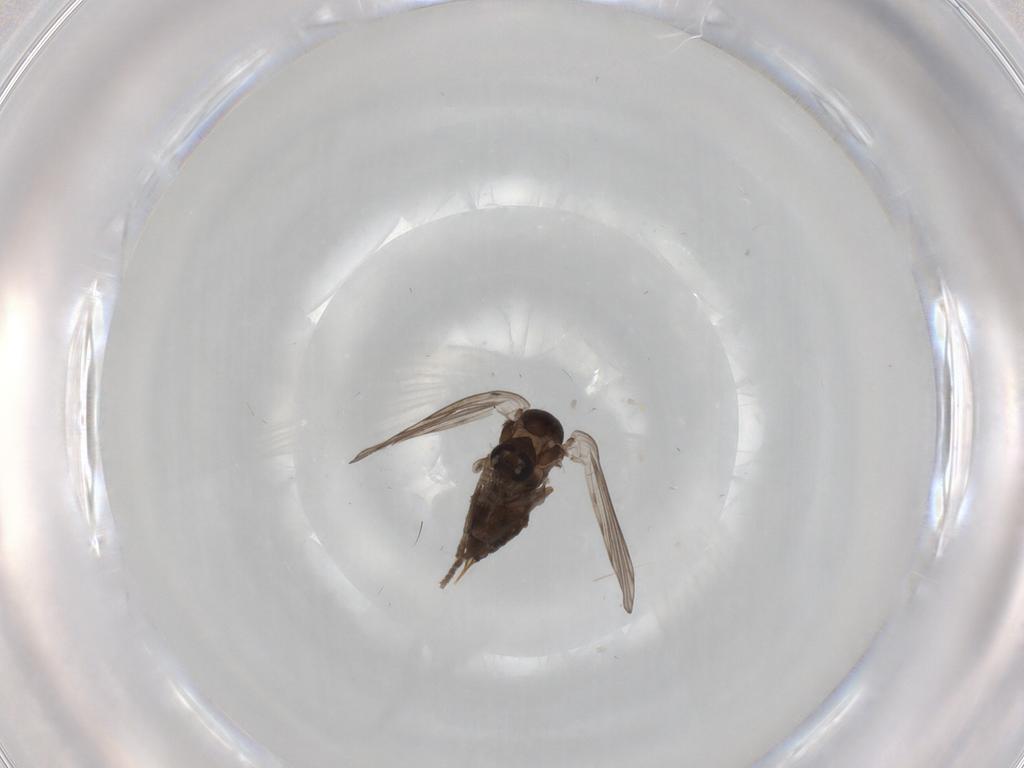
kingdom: Animalia
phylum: Arthropoda
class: Insecta
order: Diptera
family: Psychodidae
